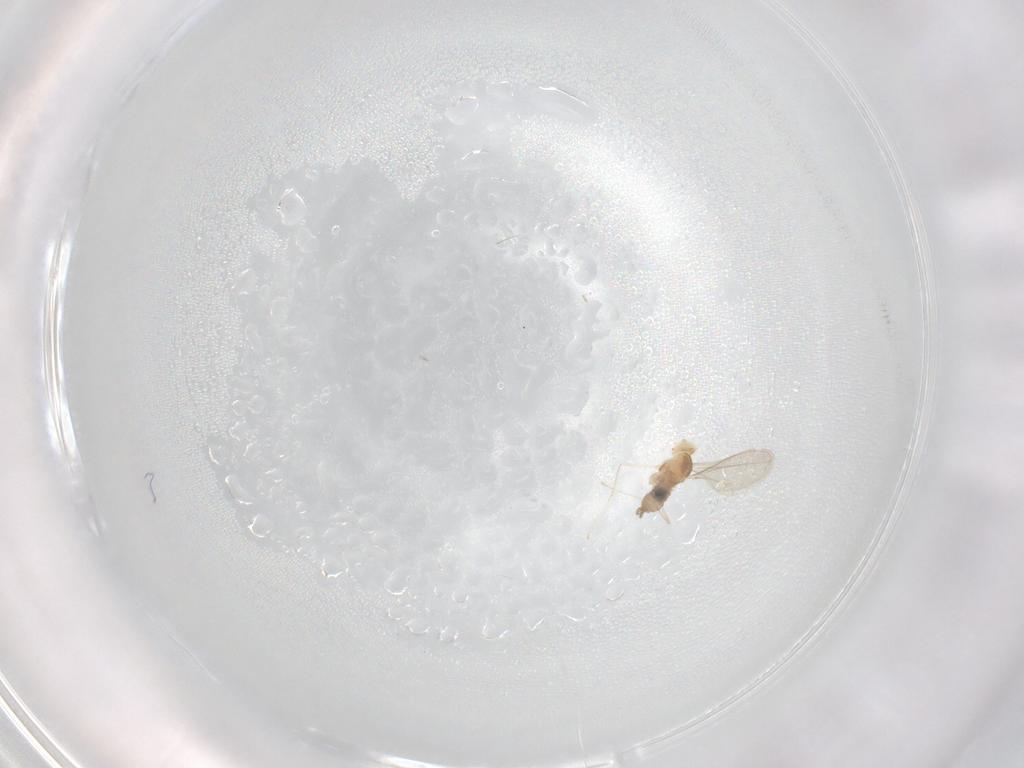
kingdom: Animalia
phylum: Arthropoda
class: Insecta
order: Diptera
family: Cecidomyiidae
